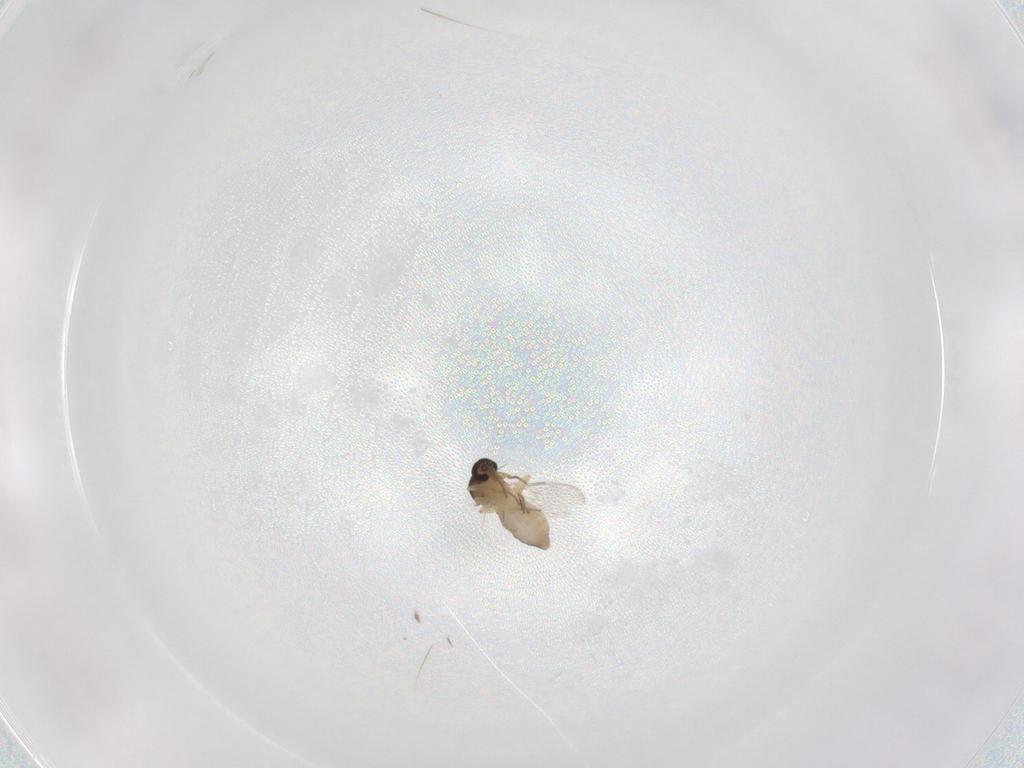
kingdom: Animalia
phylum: Arthropoda
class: Insecta
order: Diptera
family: Ceratopogonidae
